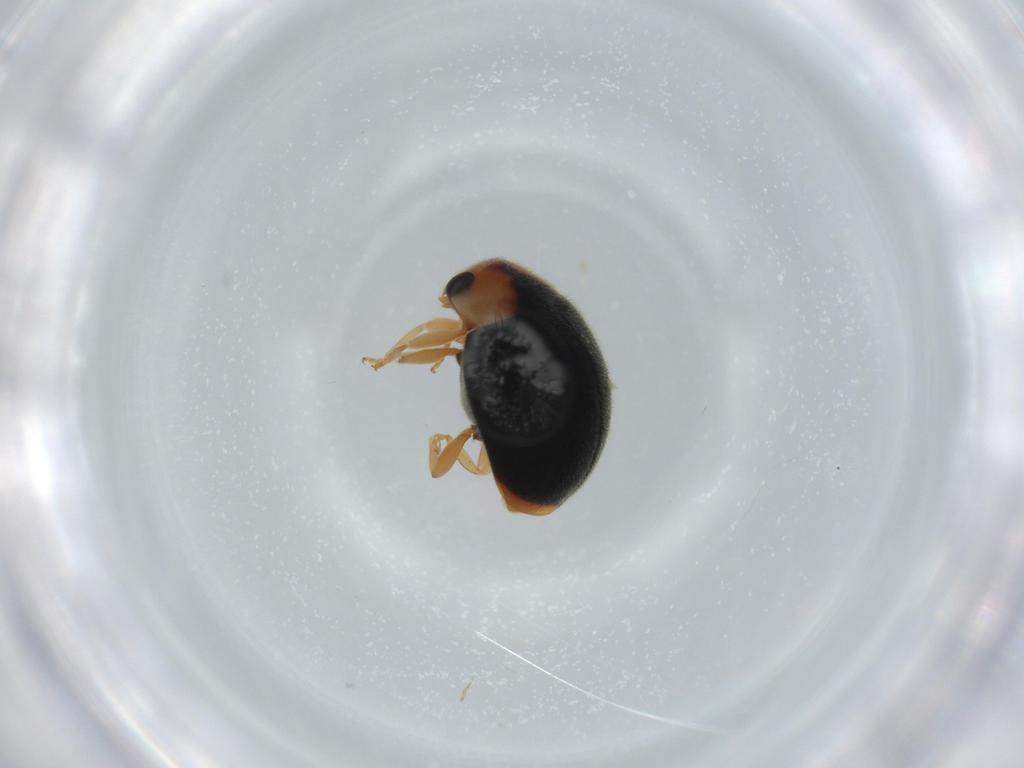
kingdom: Animalia
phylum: Arthropoda
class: Insecta
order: Coleoptera
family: Coccinellidae
